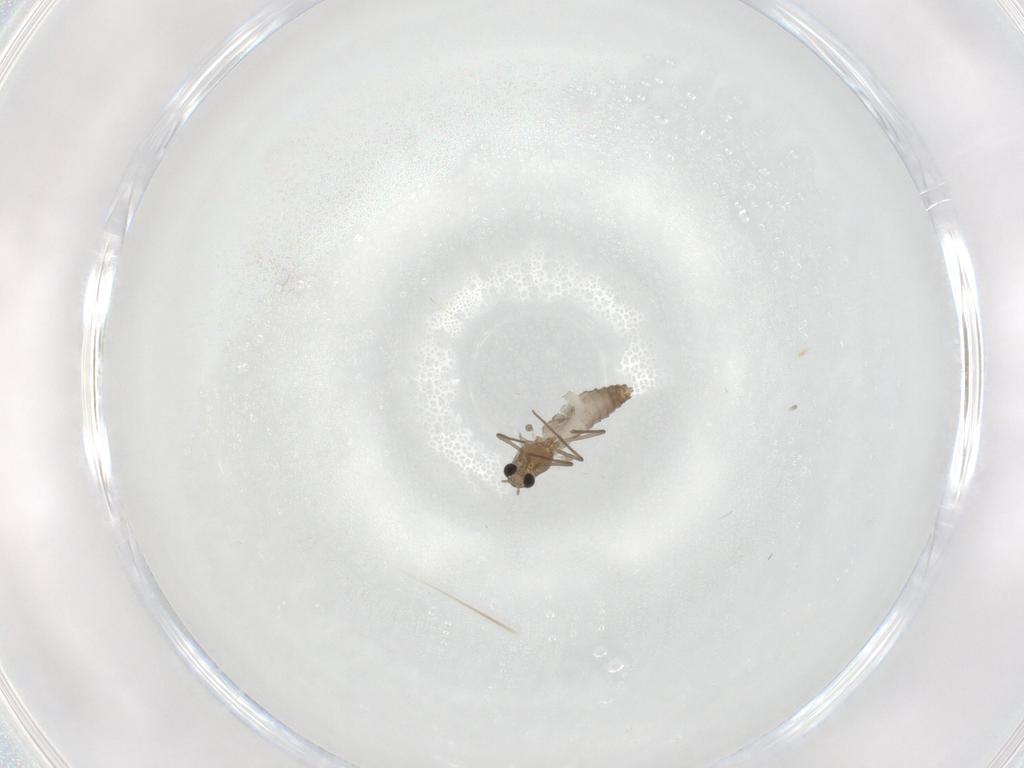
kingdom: Animalia
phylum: Arthropoda
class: Insecta
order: Diptera
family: Chironomidae
